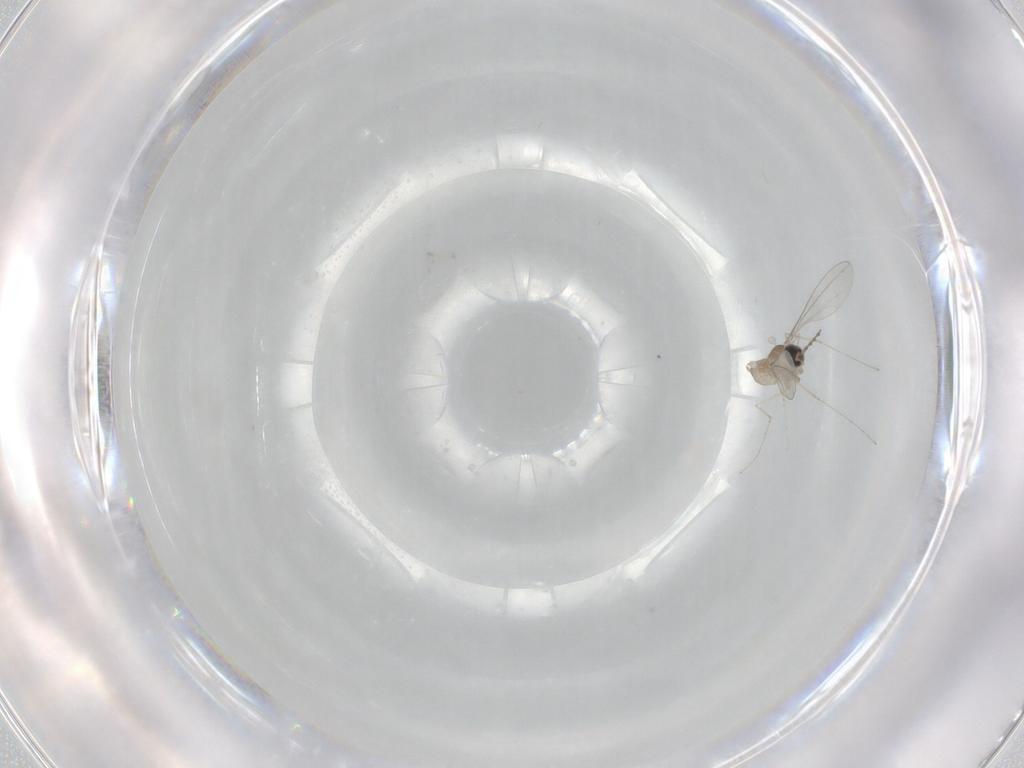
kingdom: Animalia
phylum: Arthropoda
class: Insecta
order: Diptera
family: Cecidomyiidae
